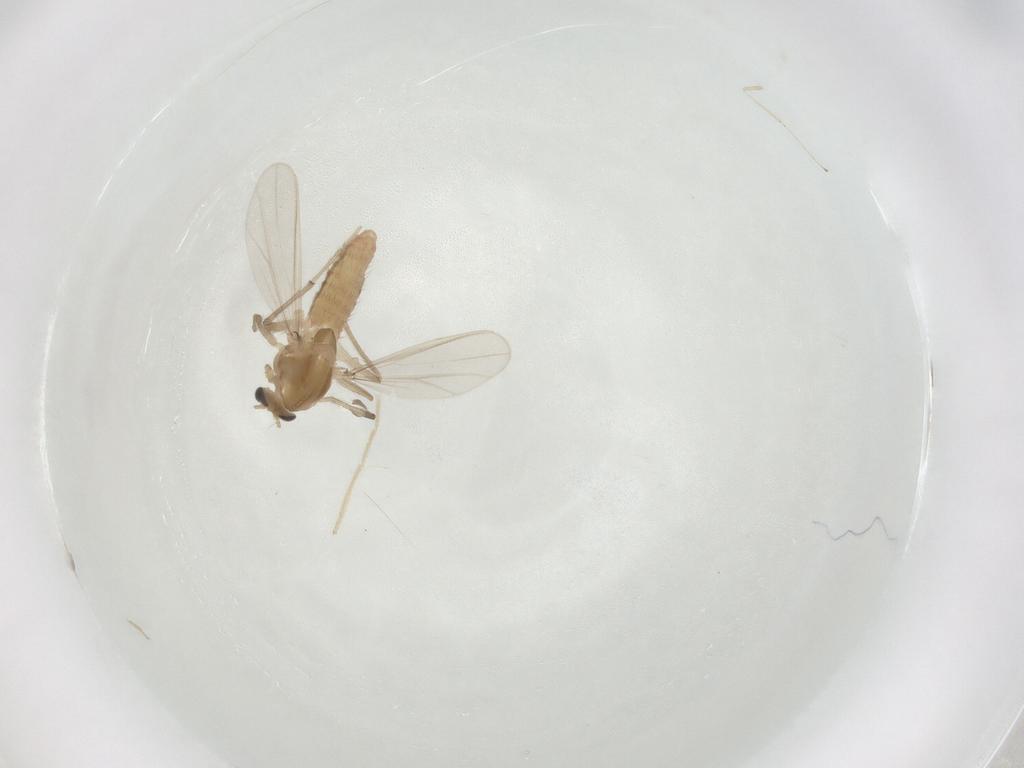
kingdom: Animalia
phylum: Arthropoda
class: Insecta
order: Diptera
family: Chironomidae
